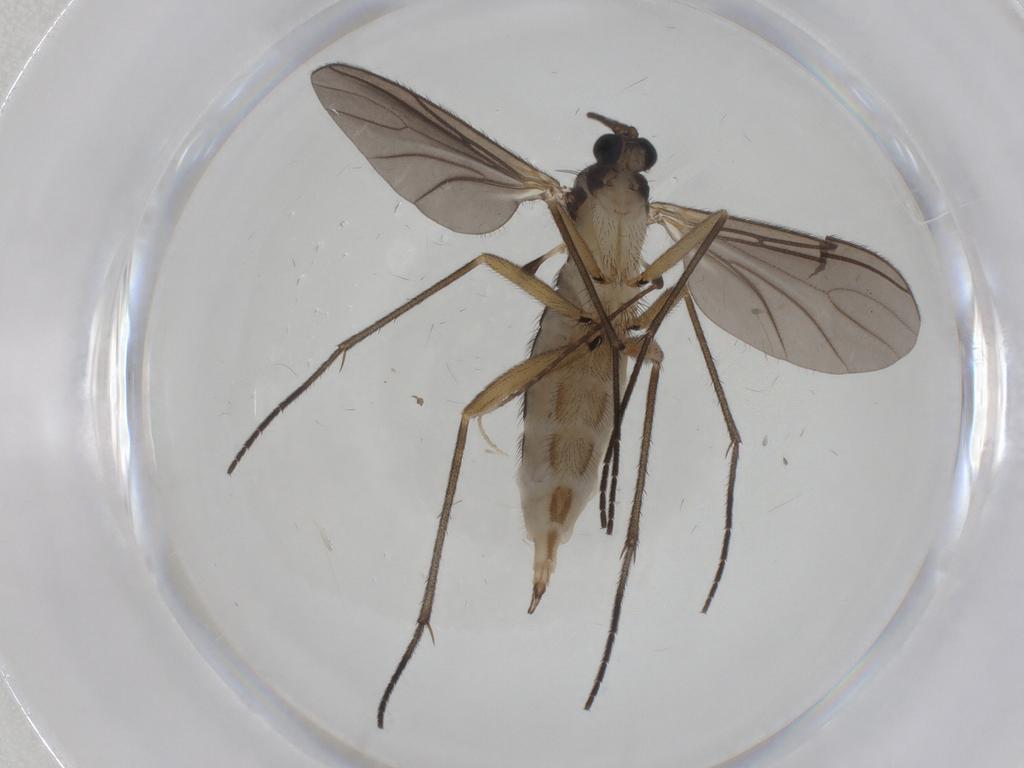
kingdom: Animalia
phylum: Arthropoda
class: Insecta
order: Diptera
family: Sciaridae
